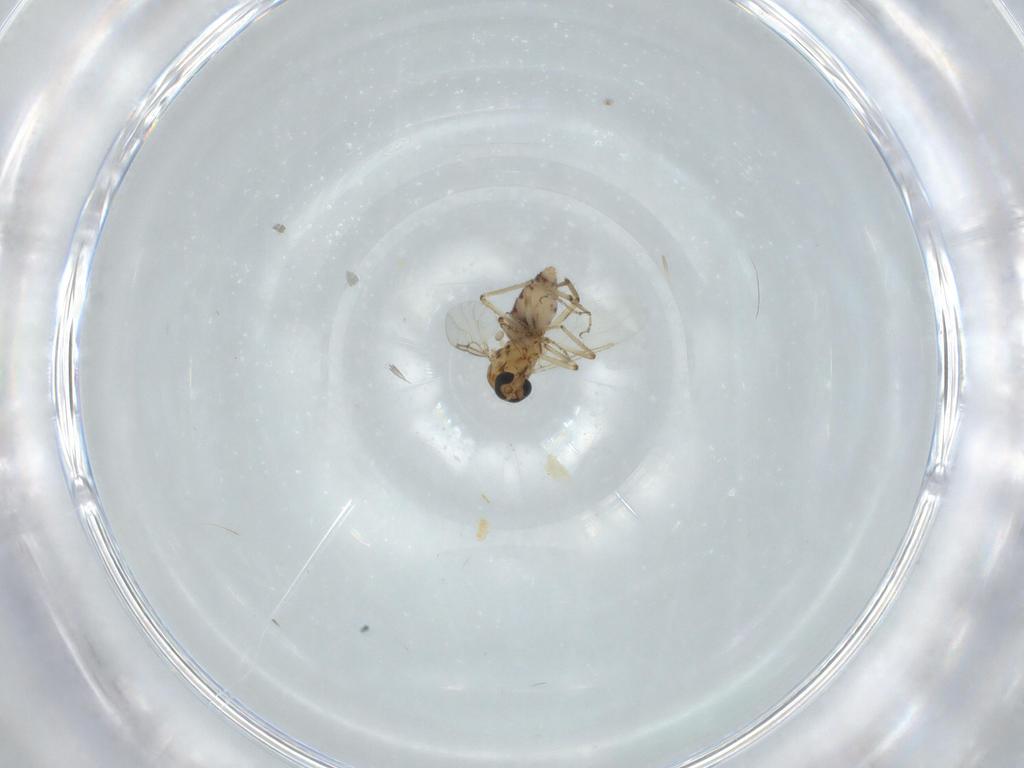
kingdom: Animalia
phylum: Arthropoda
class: Insecta
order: Diptera
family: Ceratopogonidae
